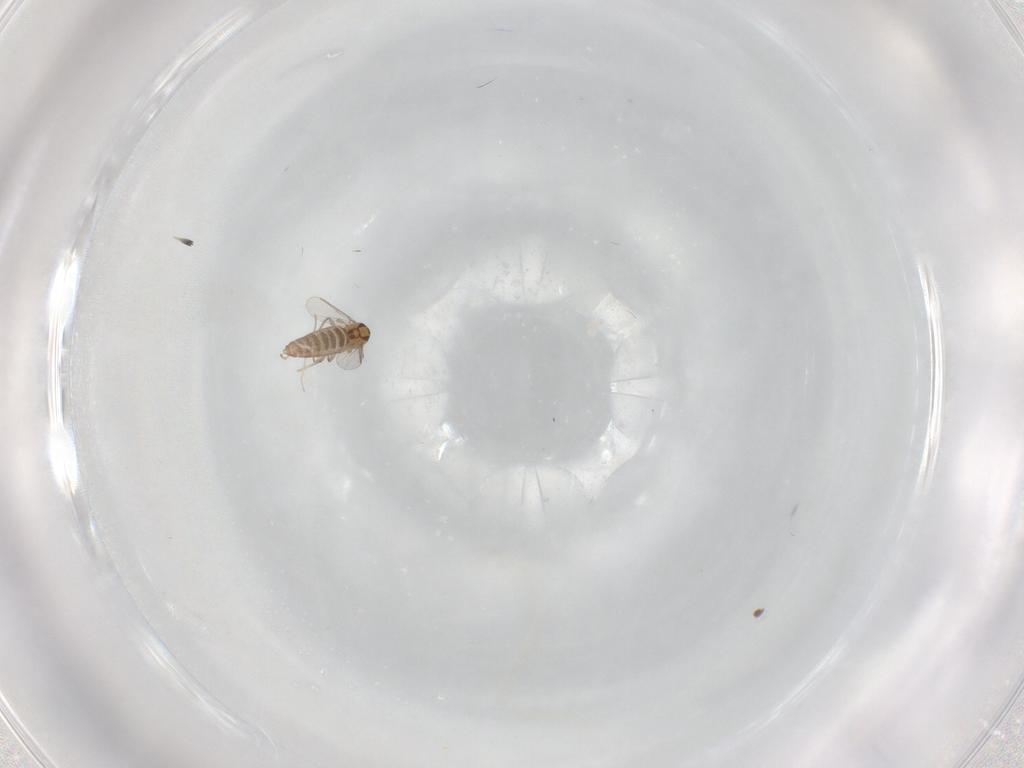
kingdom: Animalia
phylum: Arthropoda
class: Insecta
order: Diptera
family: Chironomidae
